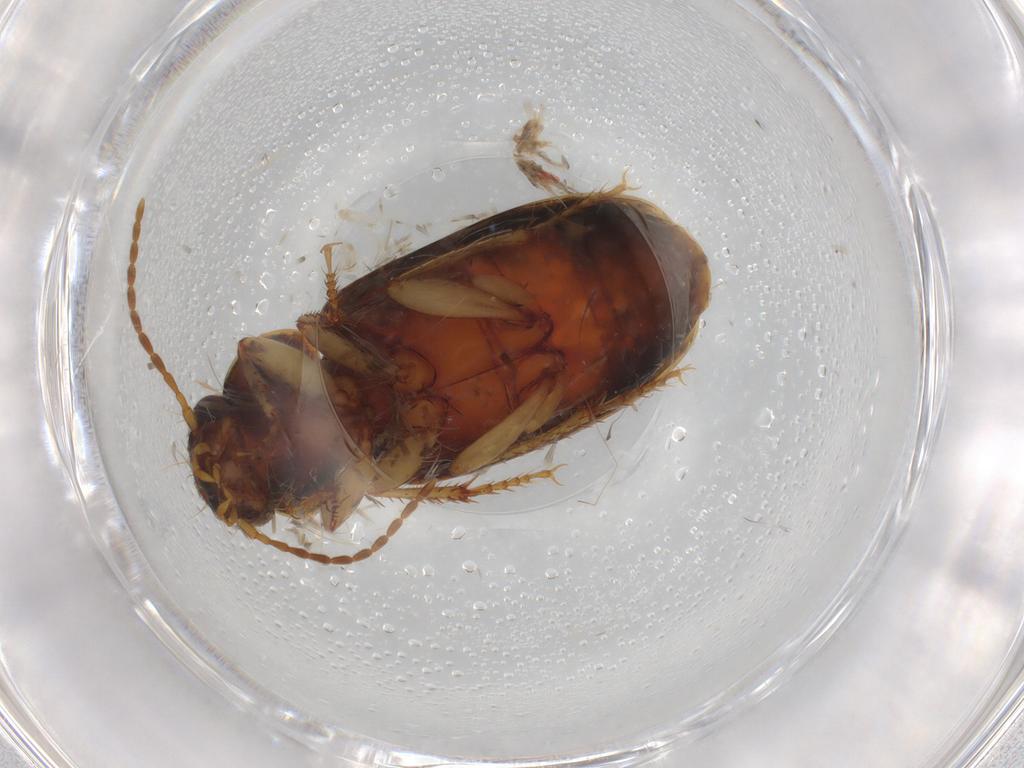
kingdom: Animalia
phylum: Arthropoda
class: Insecta
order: Coleoptera
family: Carabidae
